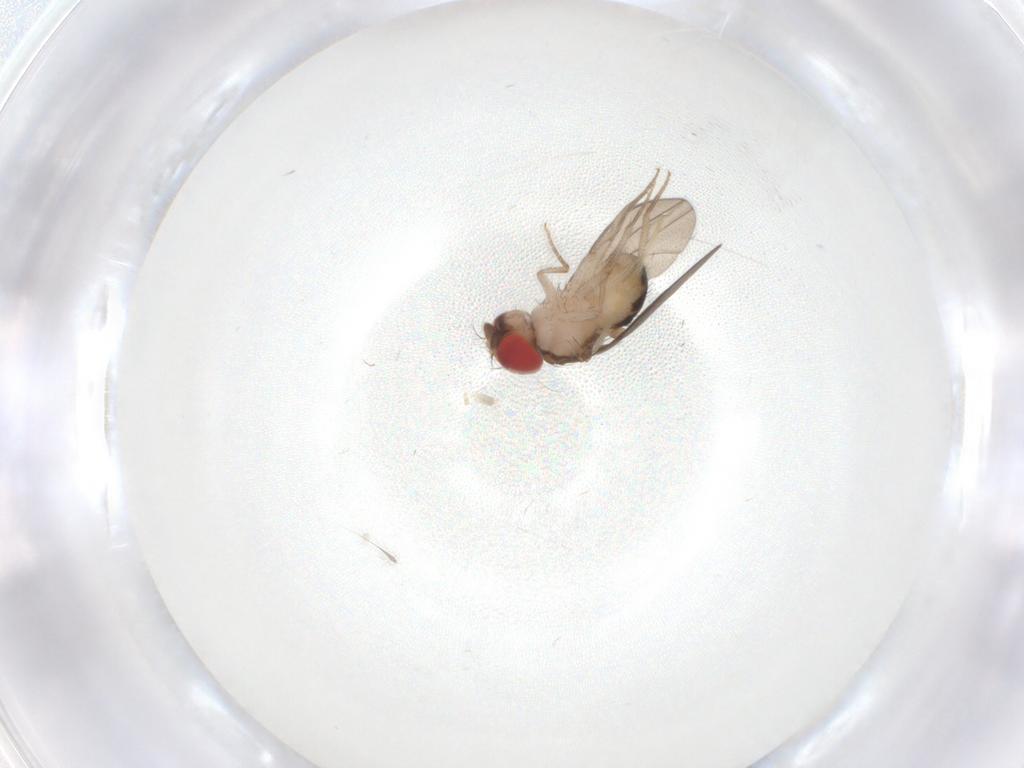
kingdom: Animalia
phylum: Arthropoda
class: Insecta
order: Diptera
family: Drosophilidae
